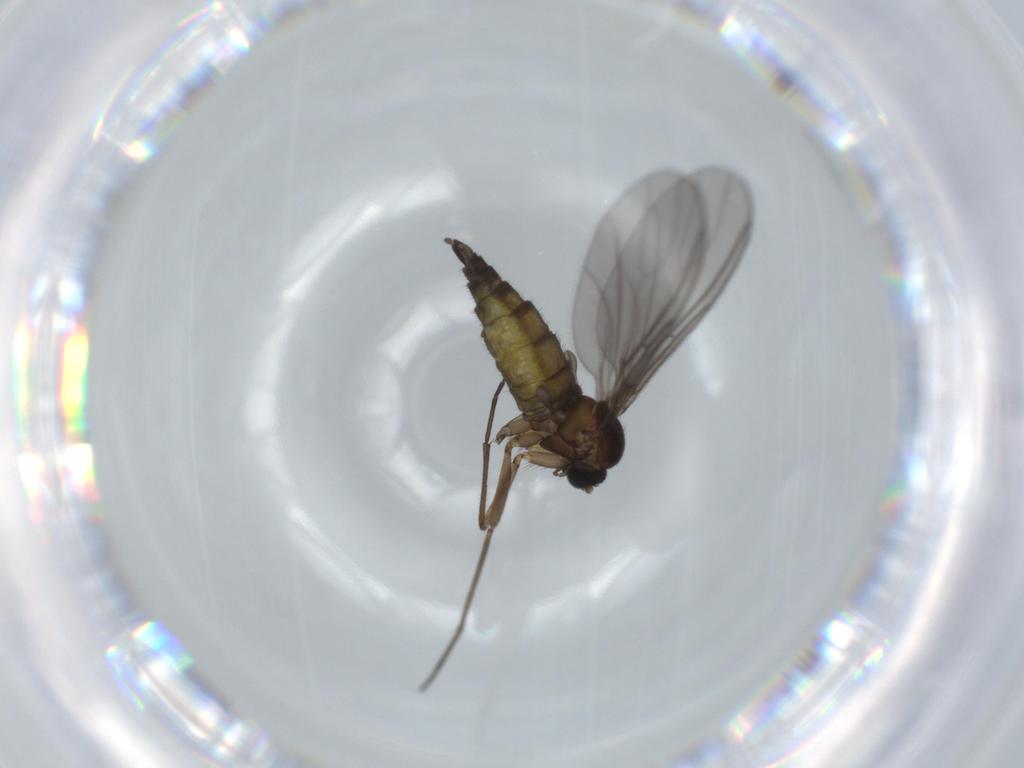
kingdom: Animalia
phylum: Arthropoda
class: Insecta
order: Diptera
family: Sciaridae
